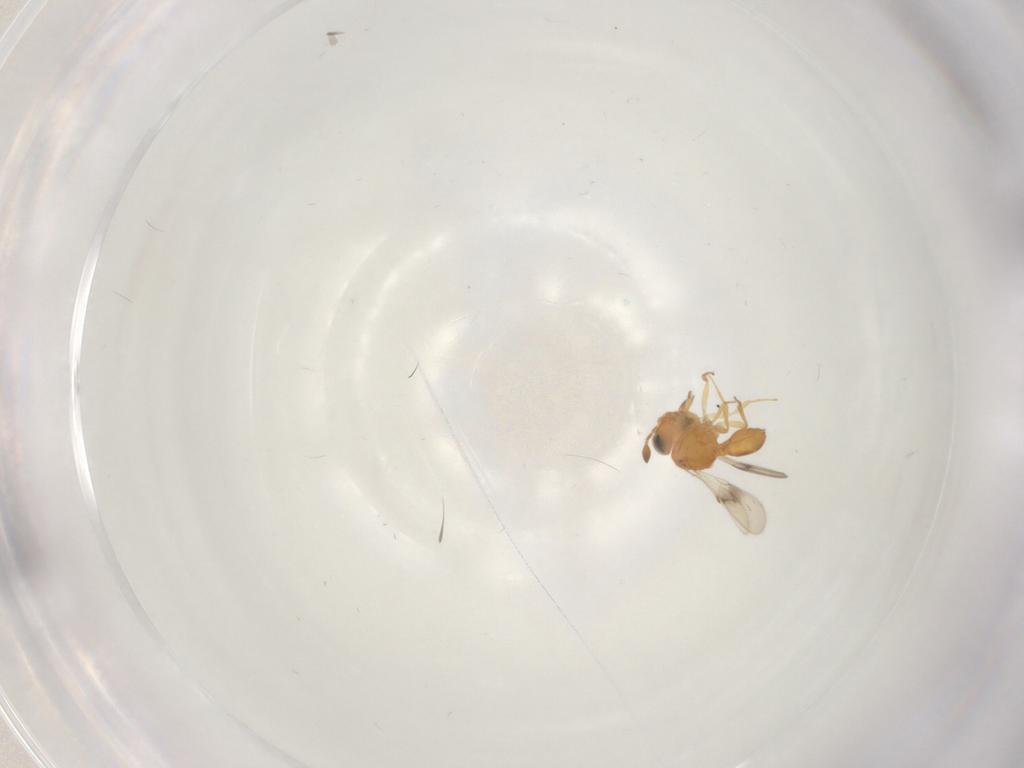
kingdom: Animalia
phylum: Arthropoda
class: Insecta
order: Hymenoptera
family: Scelionidae
